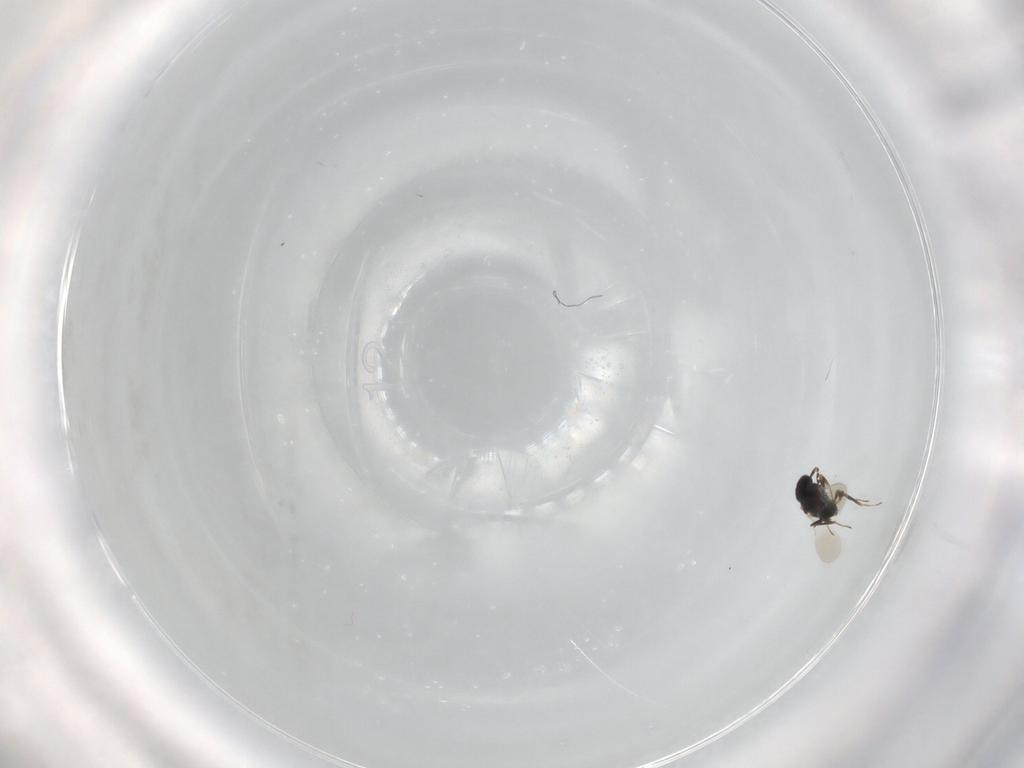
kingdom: Animalia
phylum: Arthropoda
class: Insecta
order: Hymenoptera
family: Platygastridae
